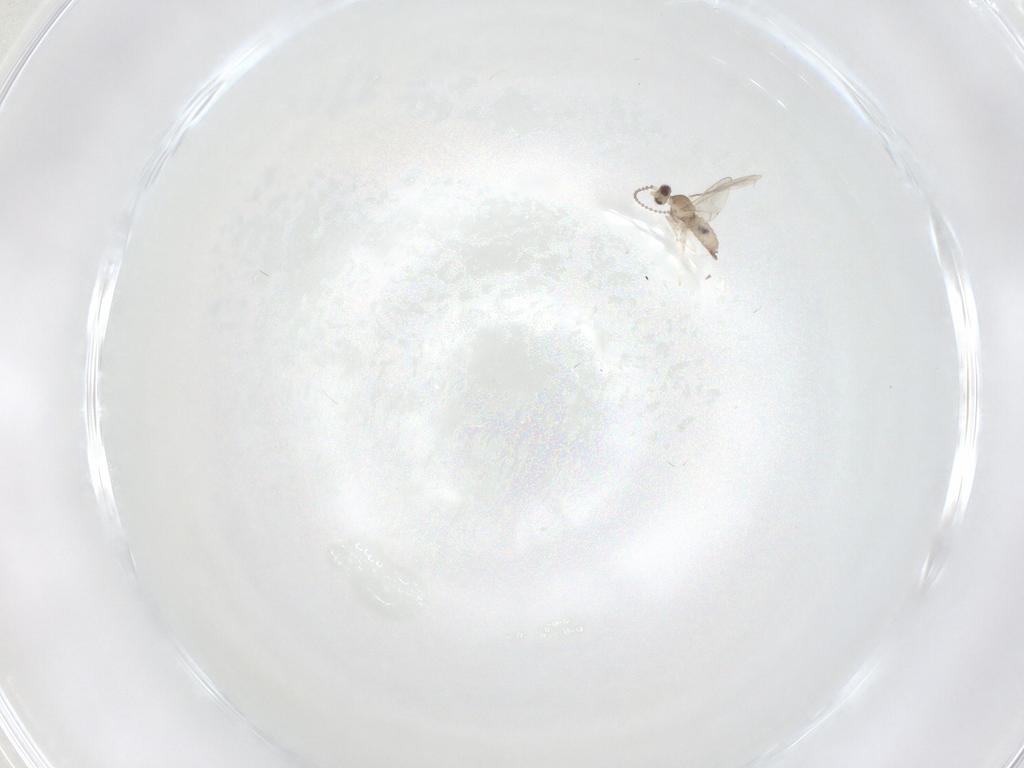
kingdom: Animalia
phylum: Arthropoda
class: Insecta
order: Diptera
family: Cecidomyiidae
